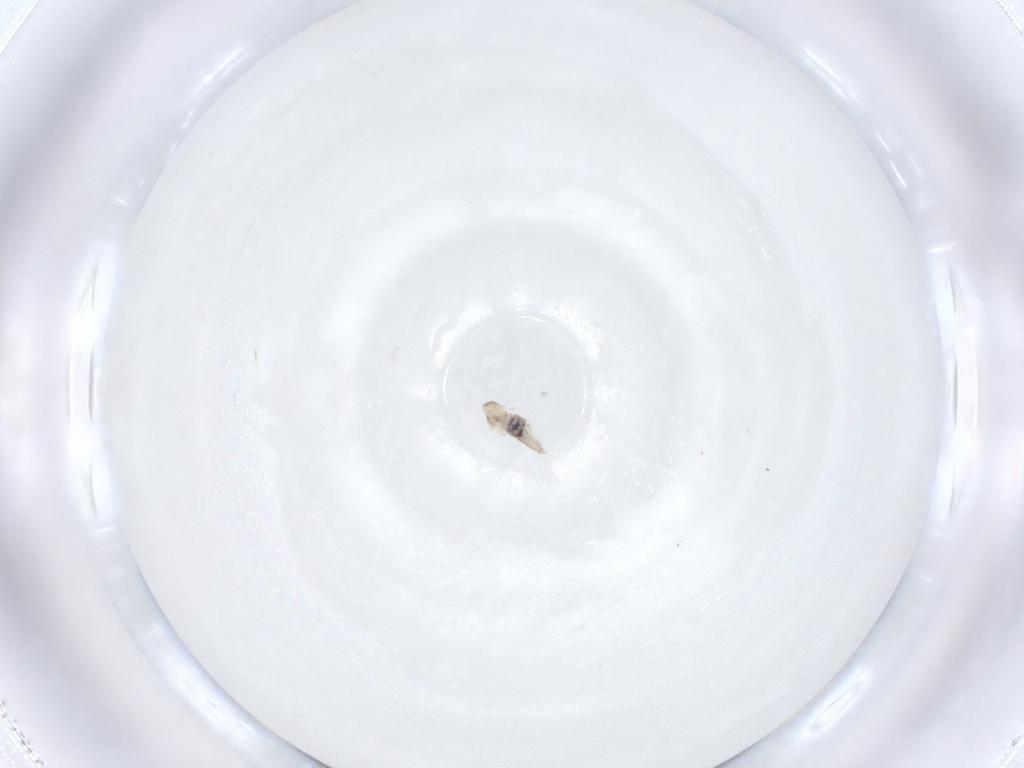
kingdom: Animalia
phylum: Arthropoda
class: Insecta
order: Diptera
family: Cecidomyiidae
